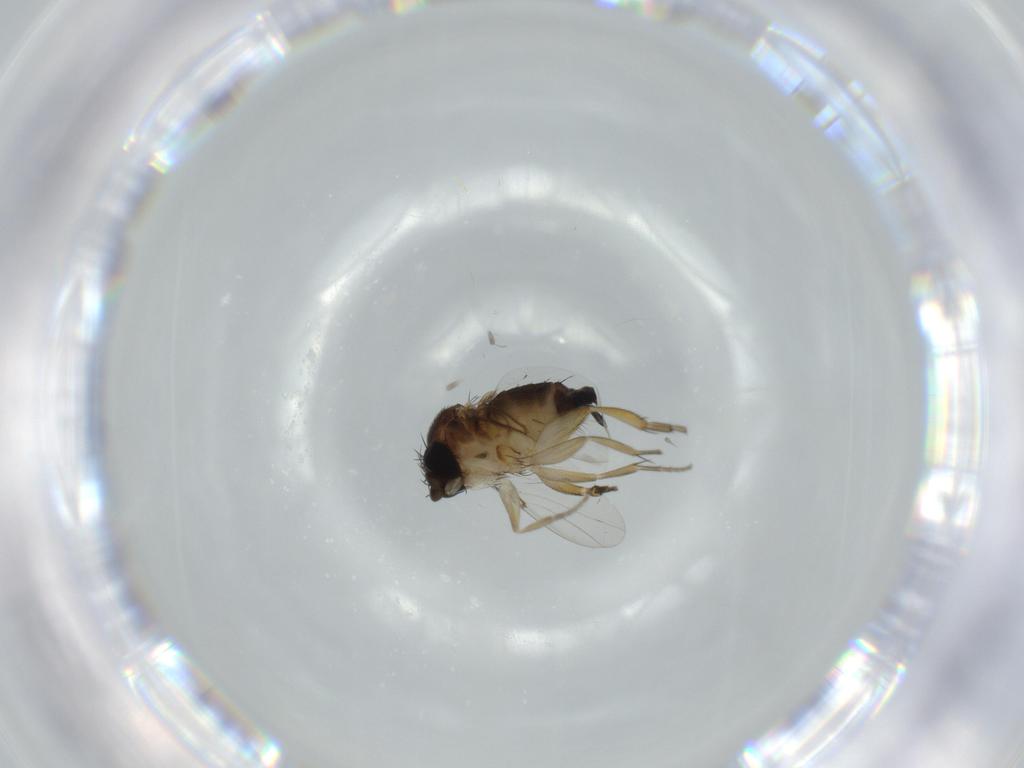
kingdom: Animalia
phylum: Arthropoda
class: Insecta
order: Diptera
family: Phoridae
